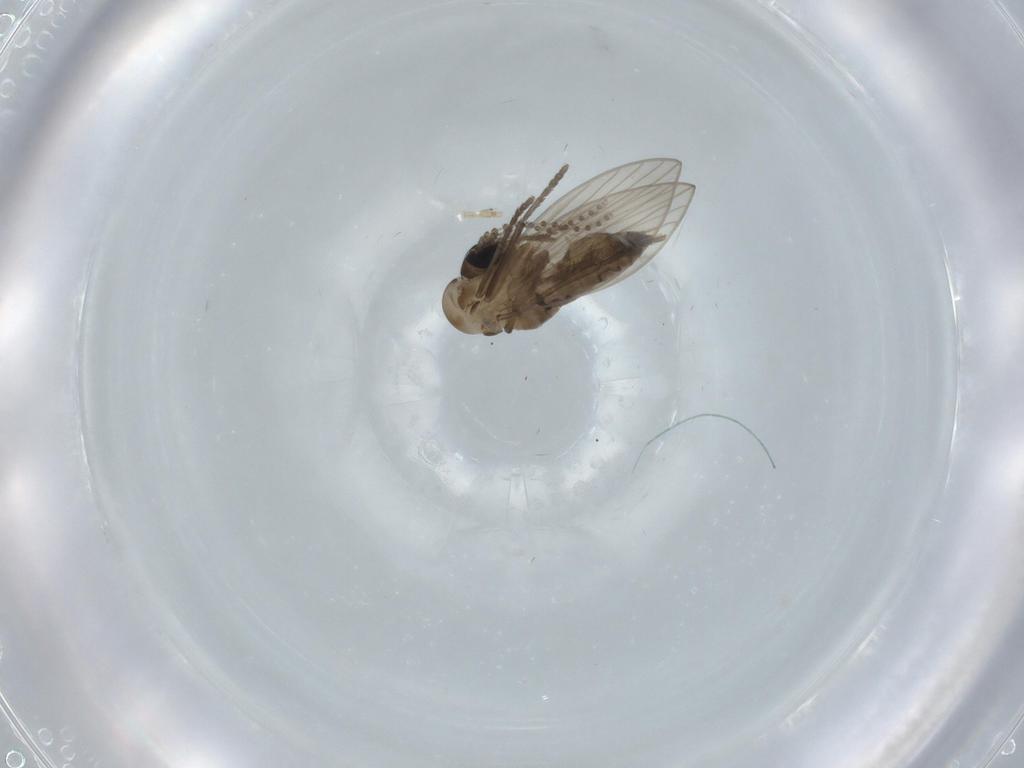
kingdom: Animalia
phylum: Arthropoda
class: Insecta
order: Diptera
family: Psychodidae
